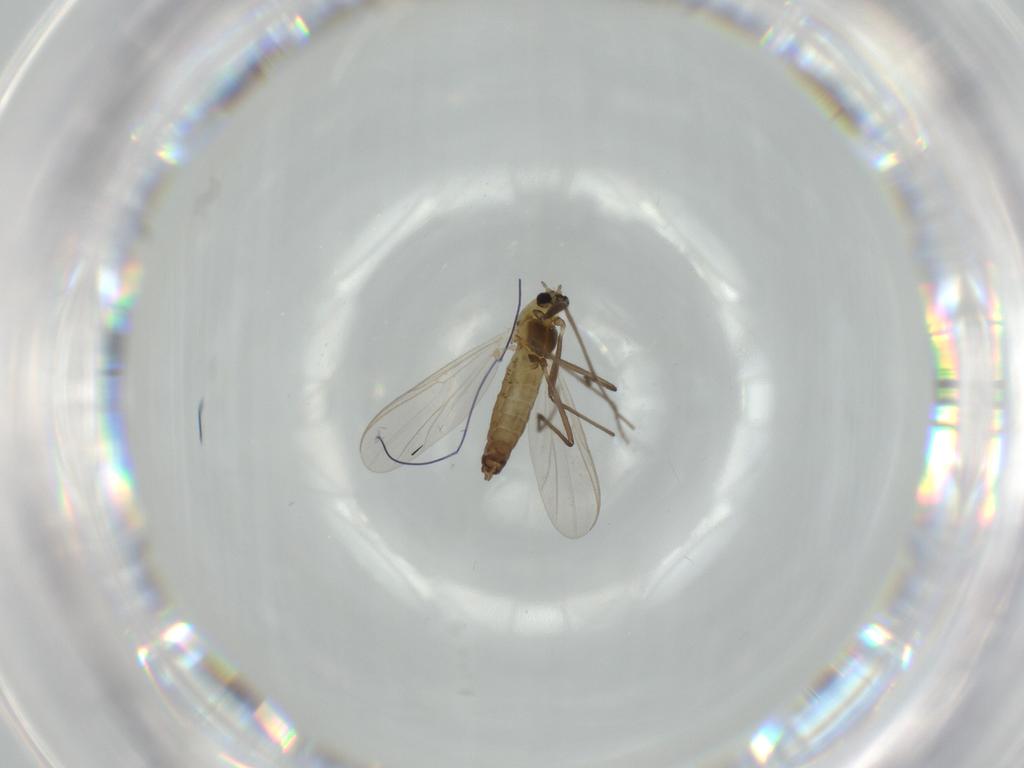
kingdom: Animalia
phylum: Arthropoda
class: Insecta
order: Diptera
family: Chironomidae
